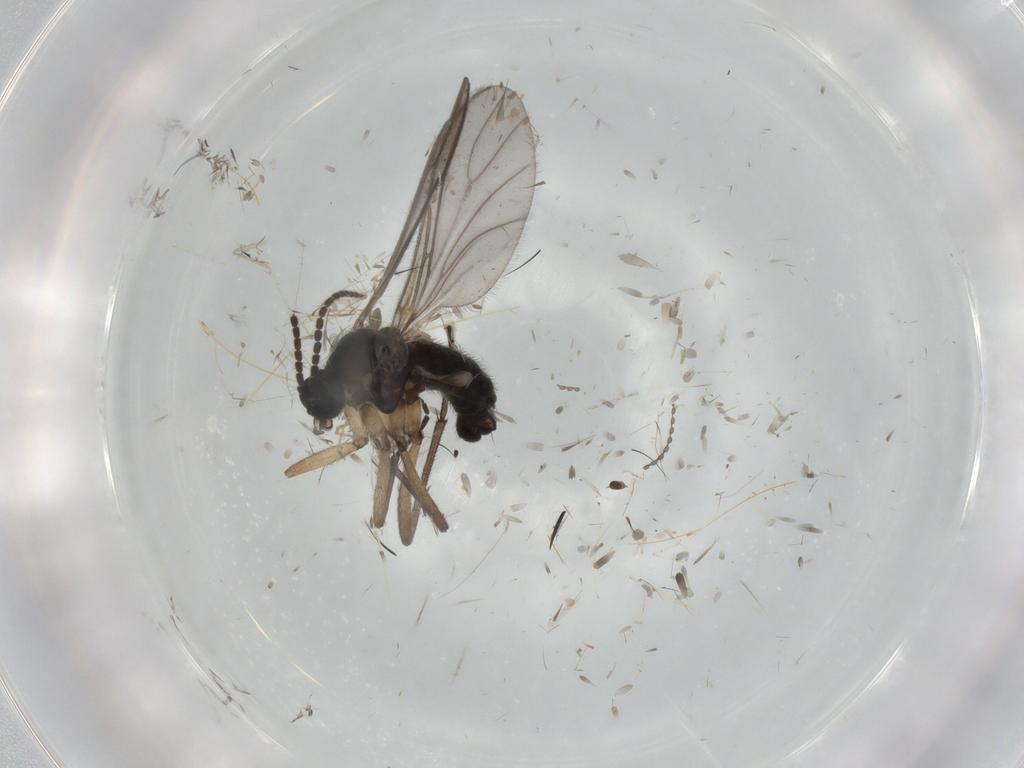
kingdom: Animalia
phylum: Arthropoda
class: Insecta
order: Diptera
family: Sciaridae
